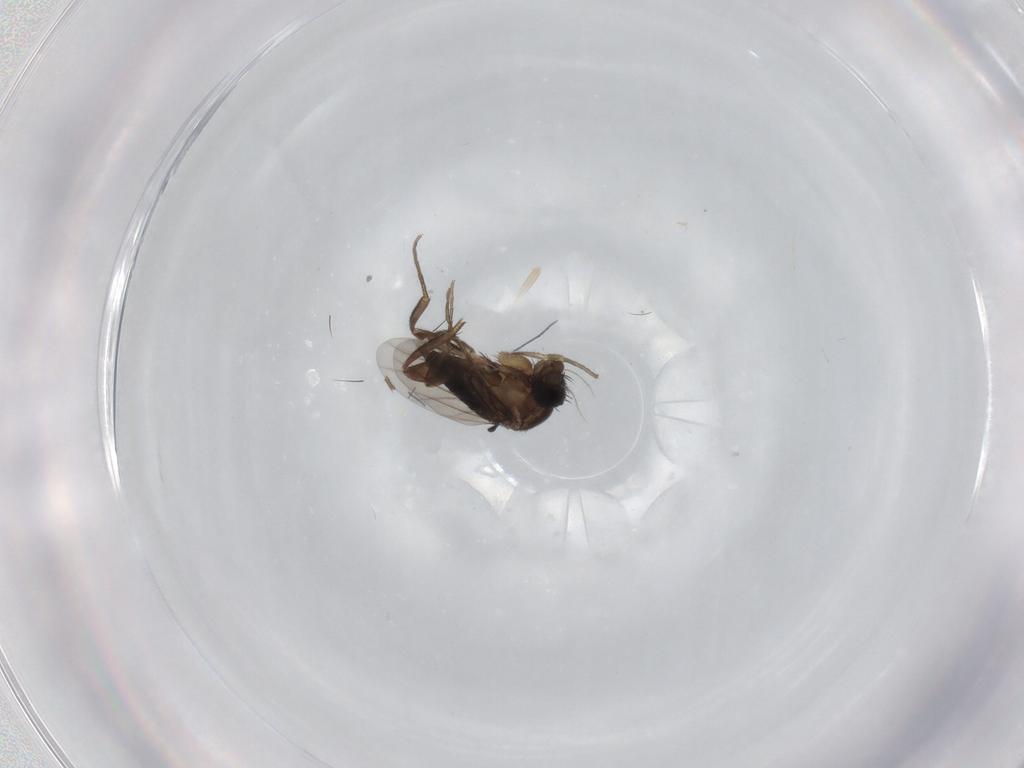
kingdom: Animalia
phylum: Arthropoda
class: Insecta
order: Diptera
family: Phoridae
